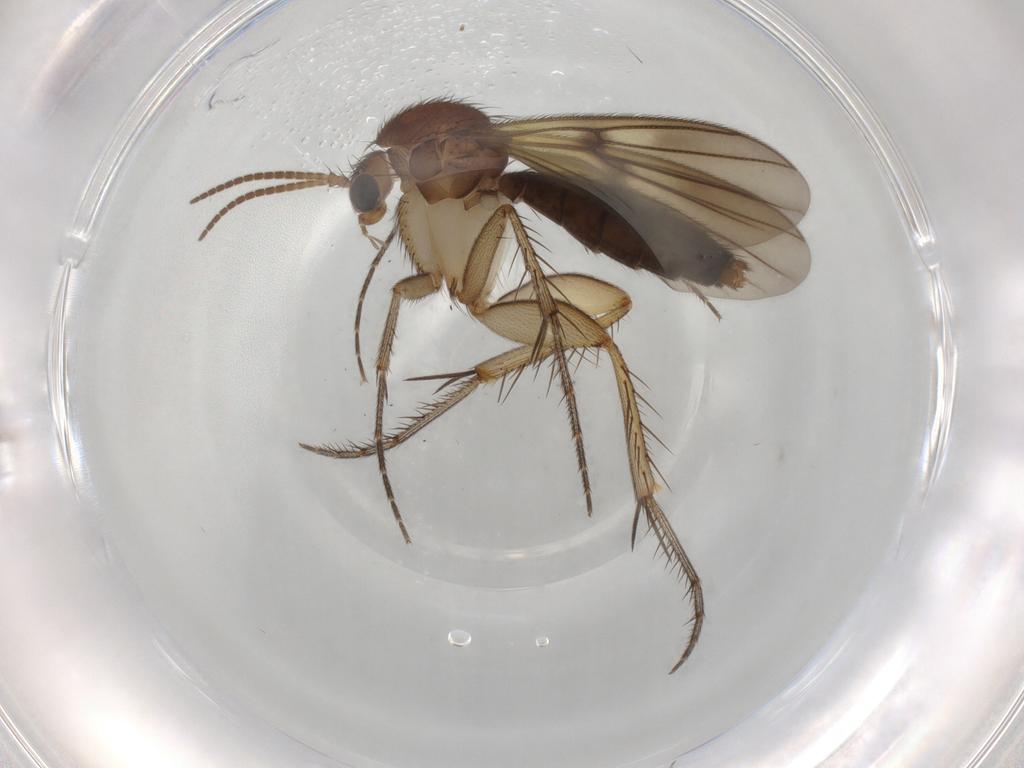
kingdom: Animalia
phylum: Arthropoda
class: Insecta
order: Diptera
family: Mycetophilidae
